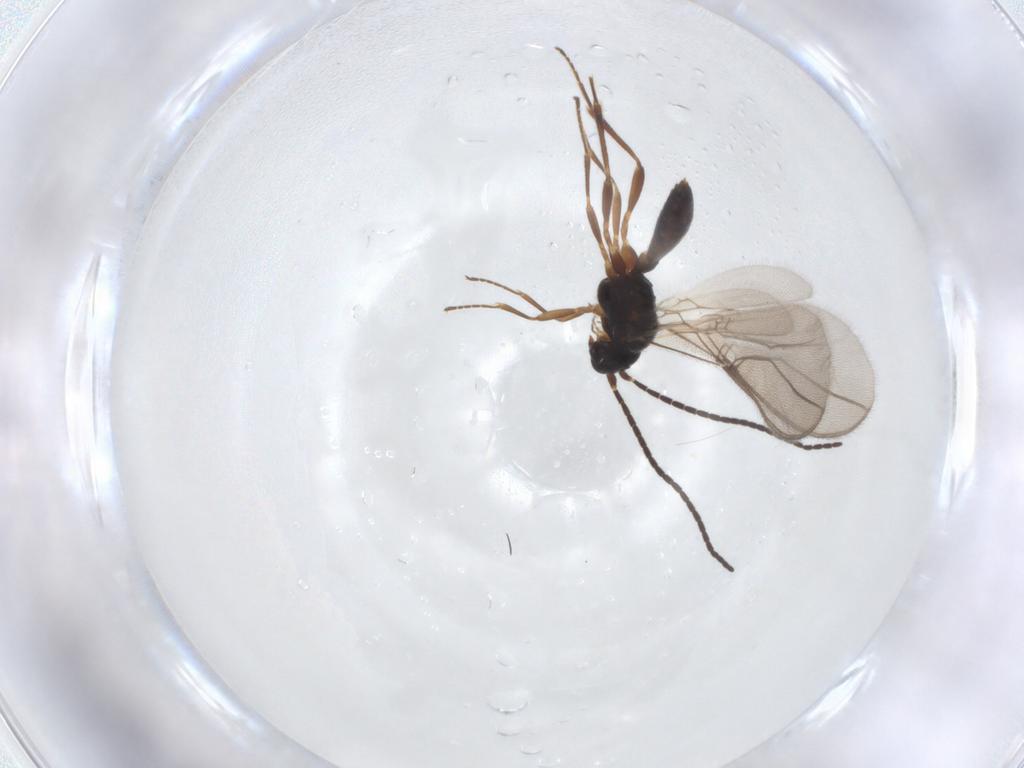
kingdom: Animalia
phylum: Arthropoda
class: Insecta
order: Hymenoptera
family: Braconidae
